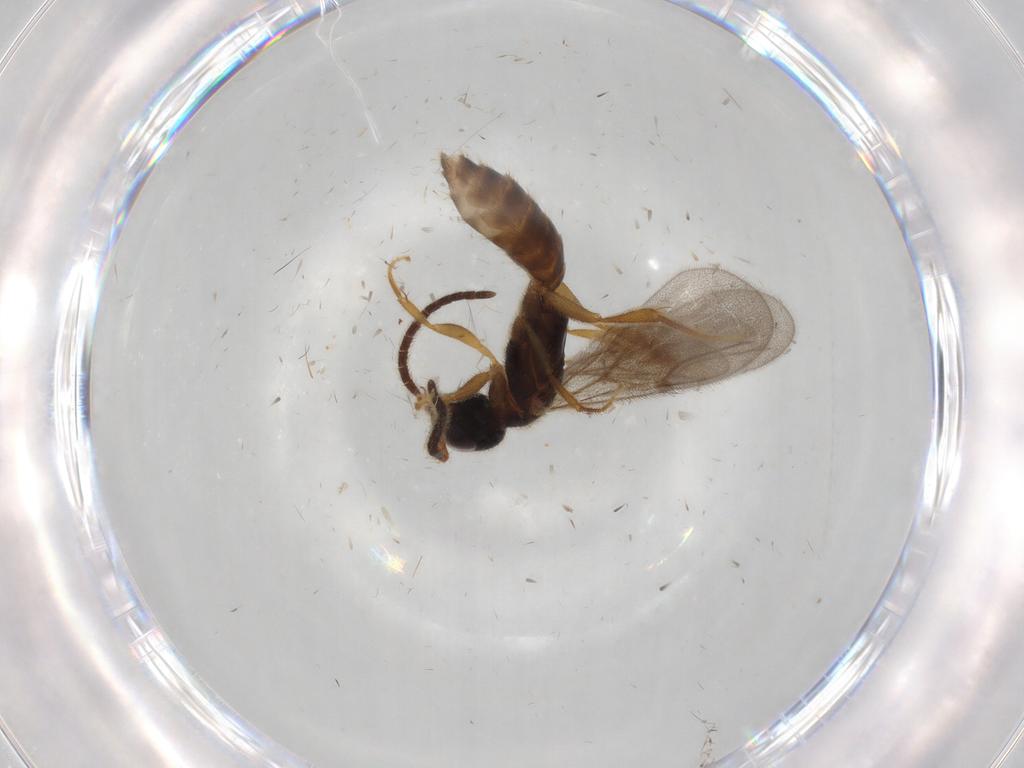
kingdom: Animalia
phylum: Arthropoda
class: Insecta
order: Hymenoptera
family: Bethylidae
